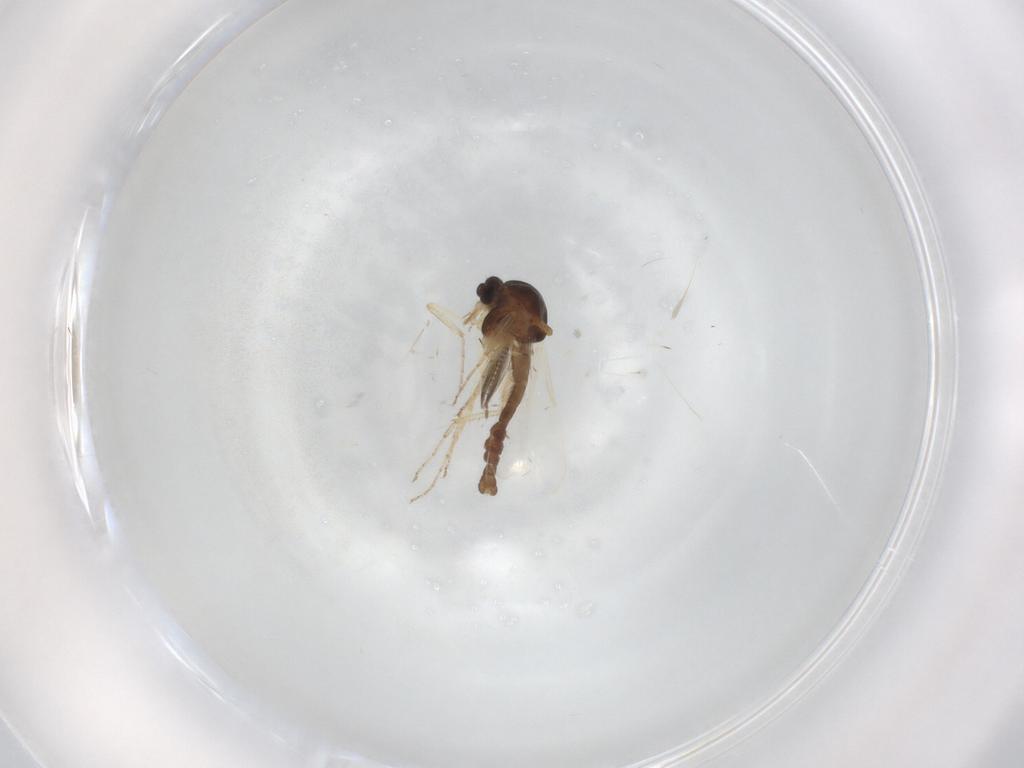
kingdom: Animalia
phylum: Arthropoda
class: Insecta
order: Diptera
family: Ceratopogonidae
